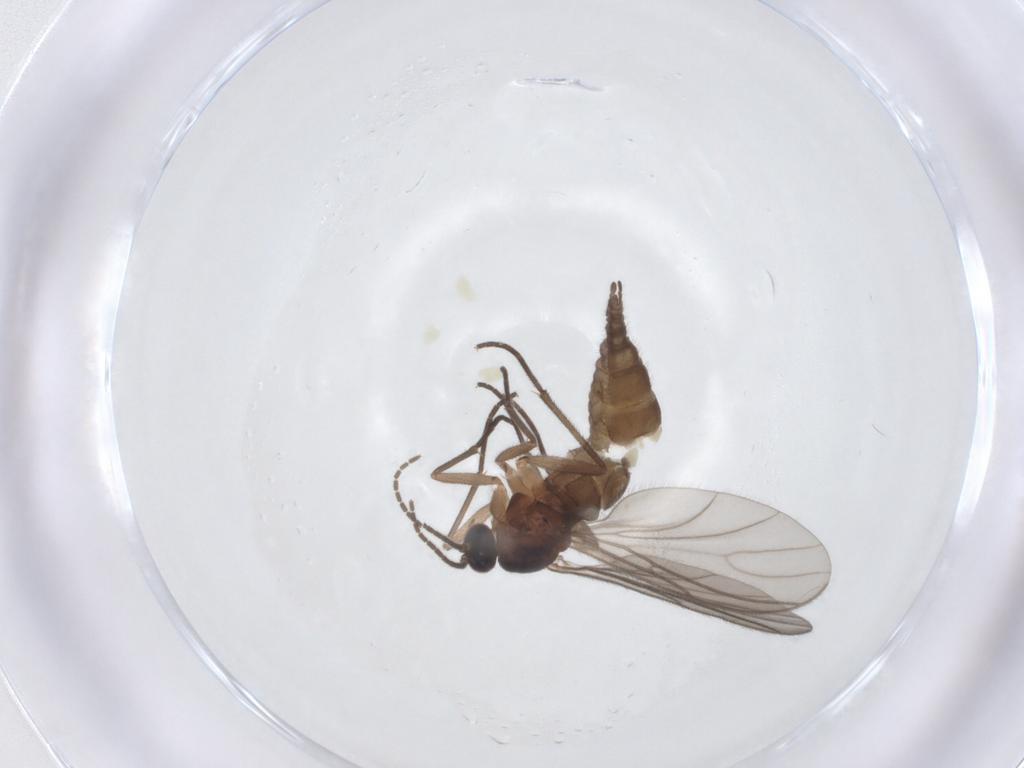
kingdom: Animalia
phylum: Arthropoda
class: Insecta
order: Diptera
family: Sciaridae
